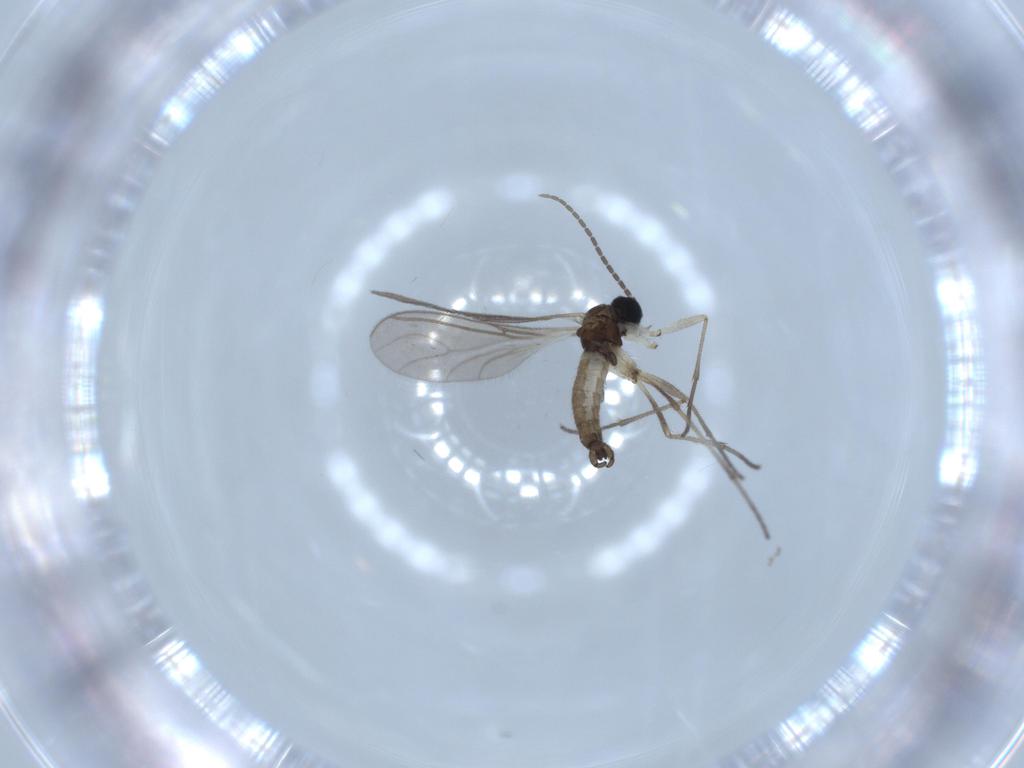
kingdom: Animalia
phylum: Arthropoda
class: Insecta
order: Diptera
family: Sciaridae
